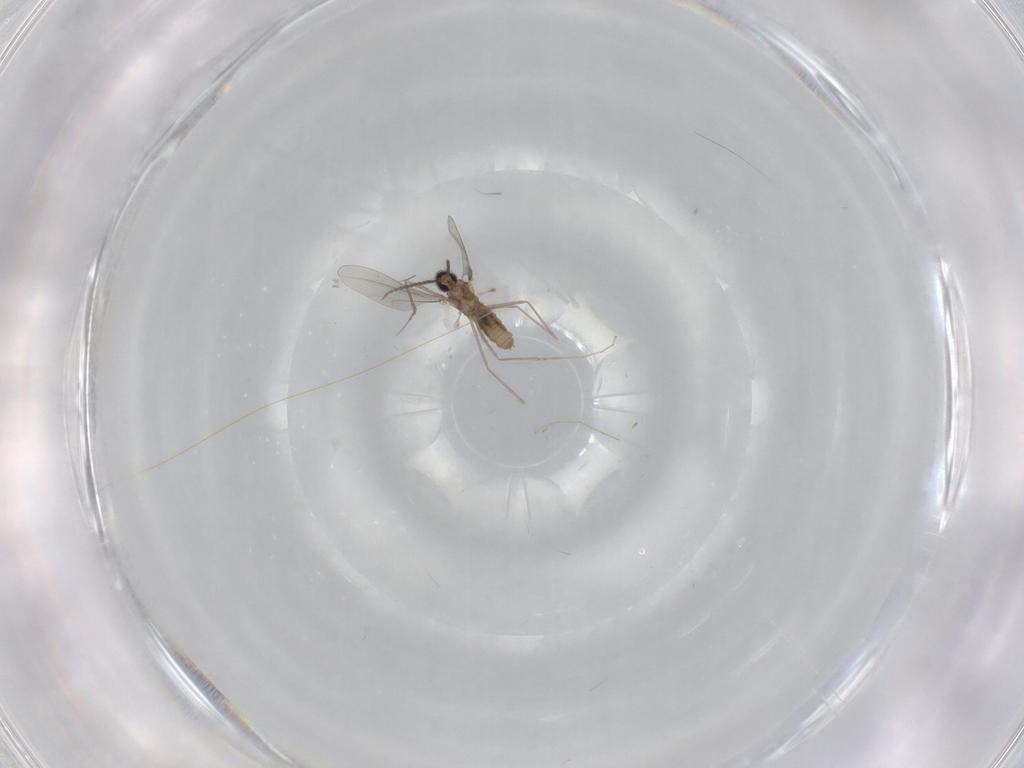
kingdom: Animalia
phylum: Arthropoda
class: Insecta
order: Diptera
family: Cecidomyiidae
